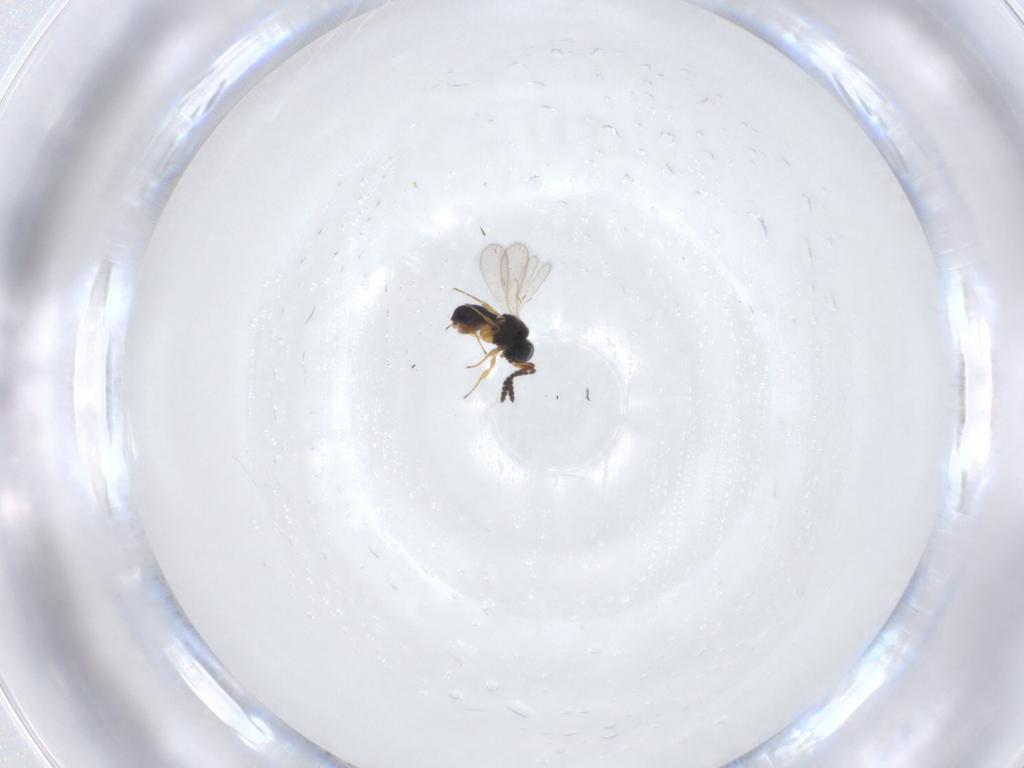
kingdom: Animalia
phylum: Arthropoda
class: Insecta
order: Hymenoptera
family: Scelionidae
